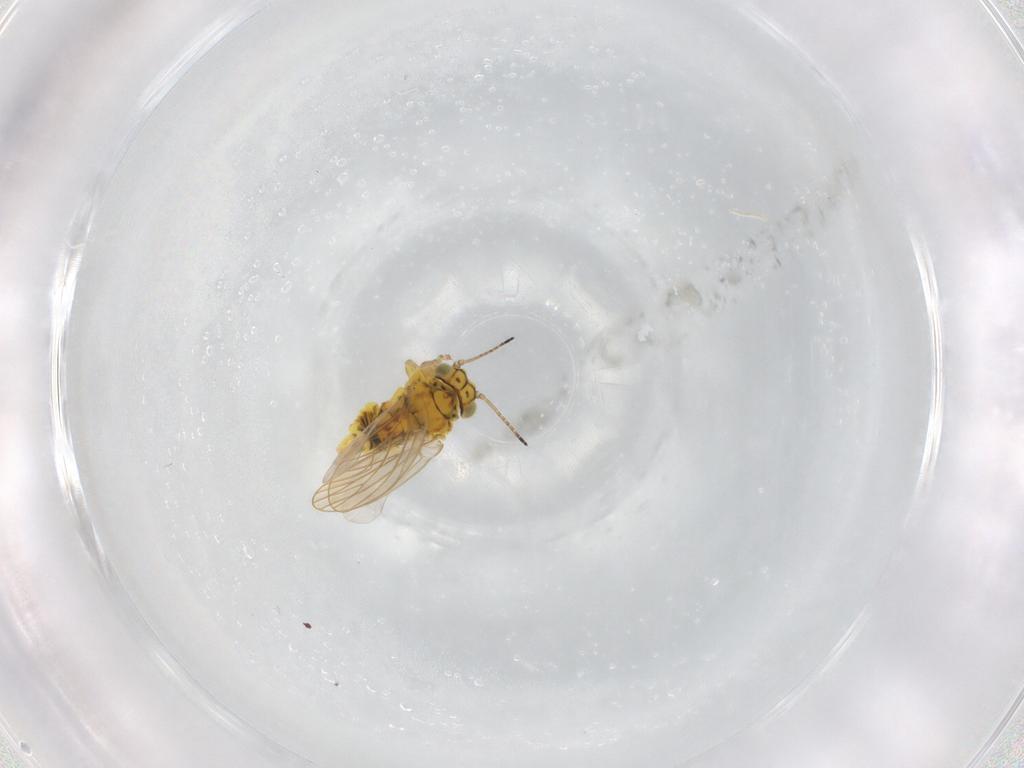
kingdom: Animalia
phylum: Arthropoda
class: Insecta
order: Hemiptera
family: Aphalaridae
